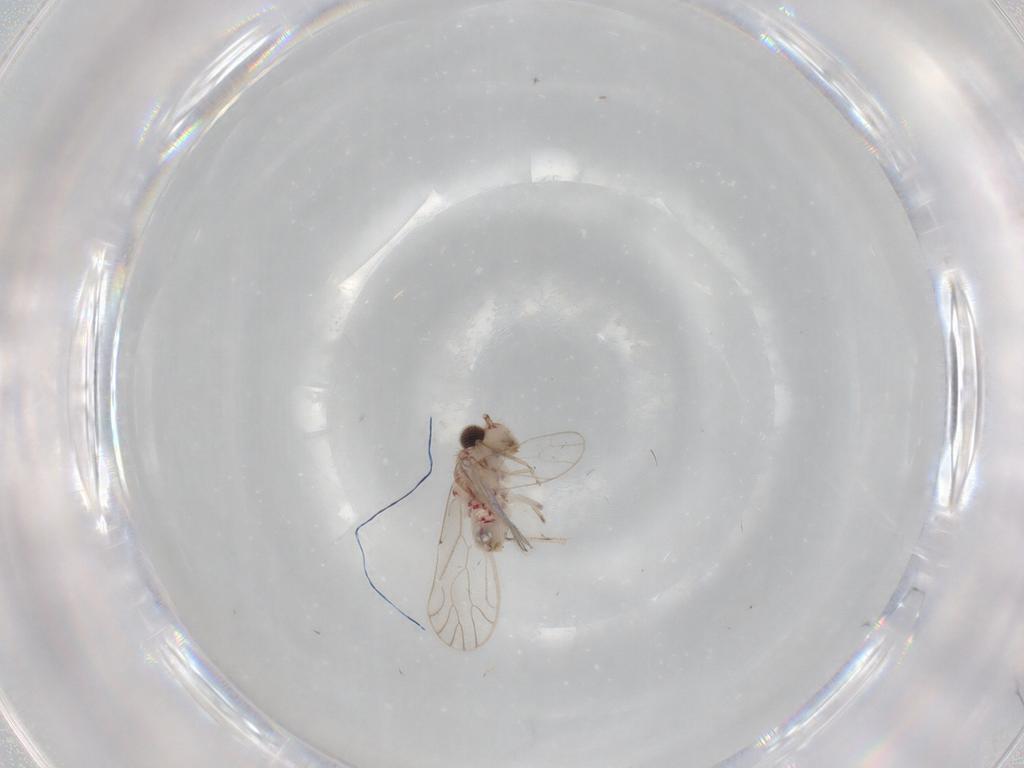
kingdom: Animalia
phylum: Arthropoda
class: Insecta
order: Psocodea
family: Caeciliusidae
